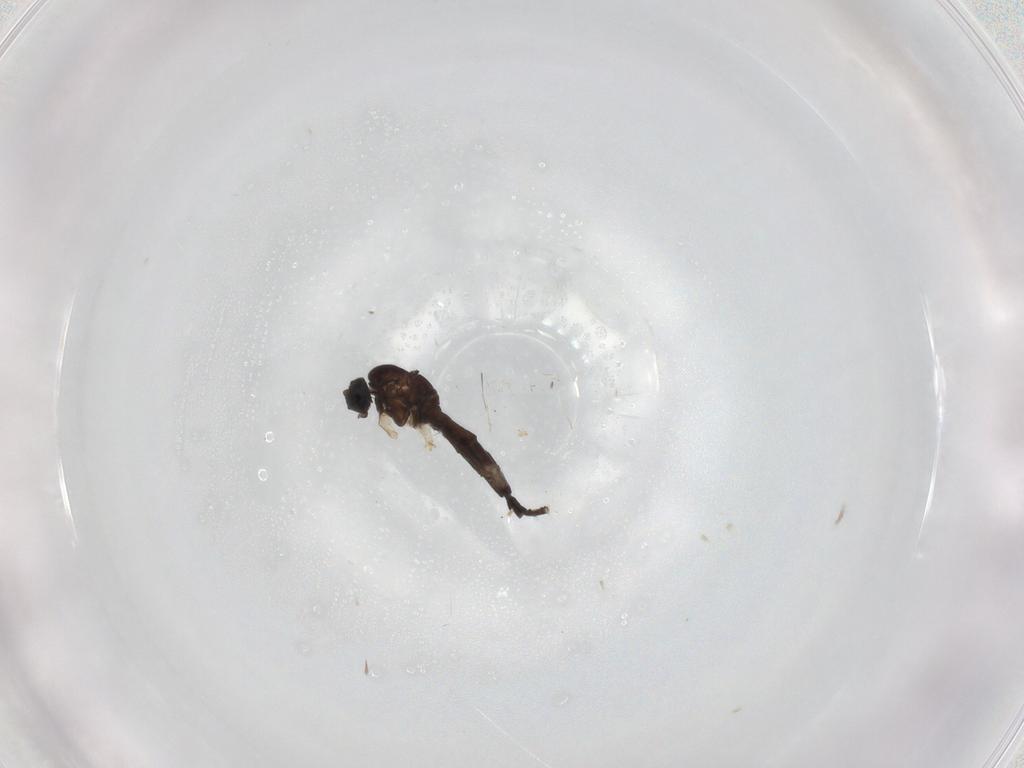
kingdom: Animalia
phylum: Arthropoda
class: Insecta
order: Diptera
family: Sciaridae
